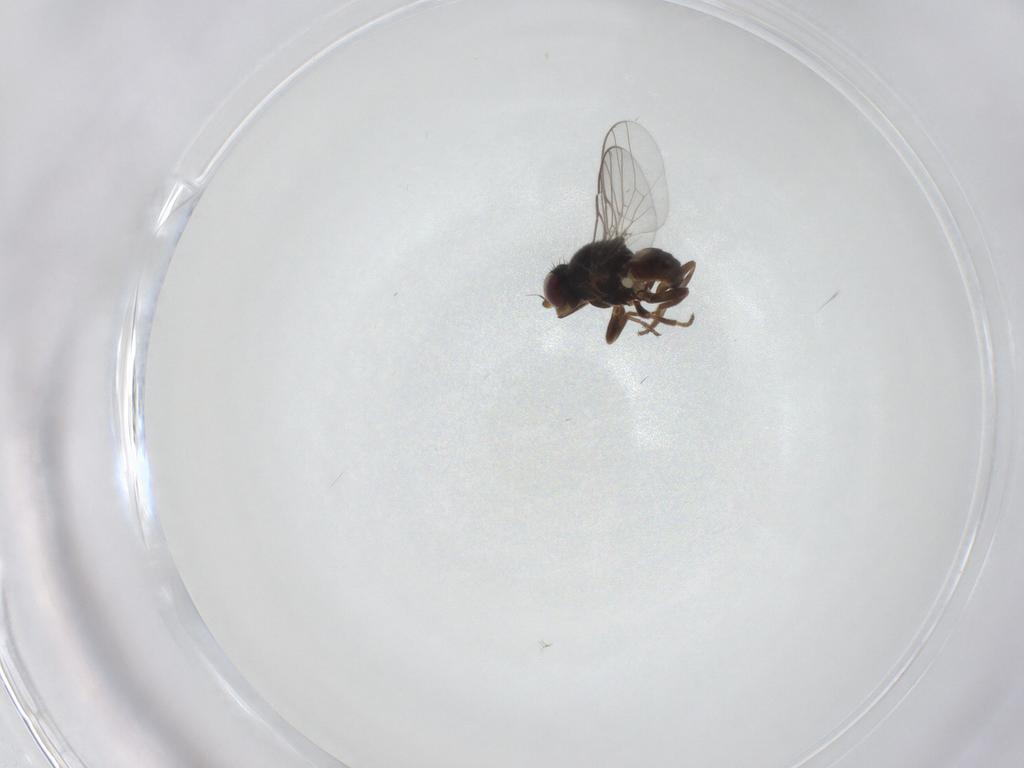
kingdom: Animalia
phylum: Arthropoda
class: Insecta
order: Diptera
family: Chloropidae
